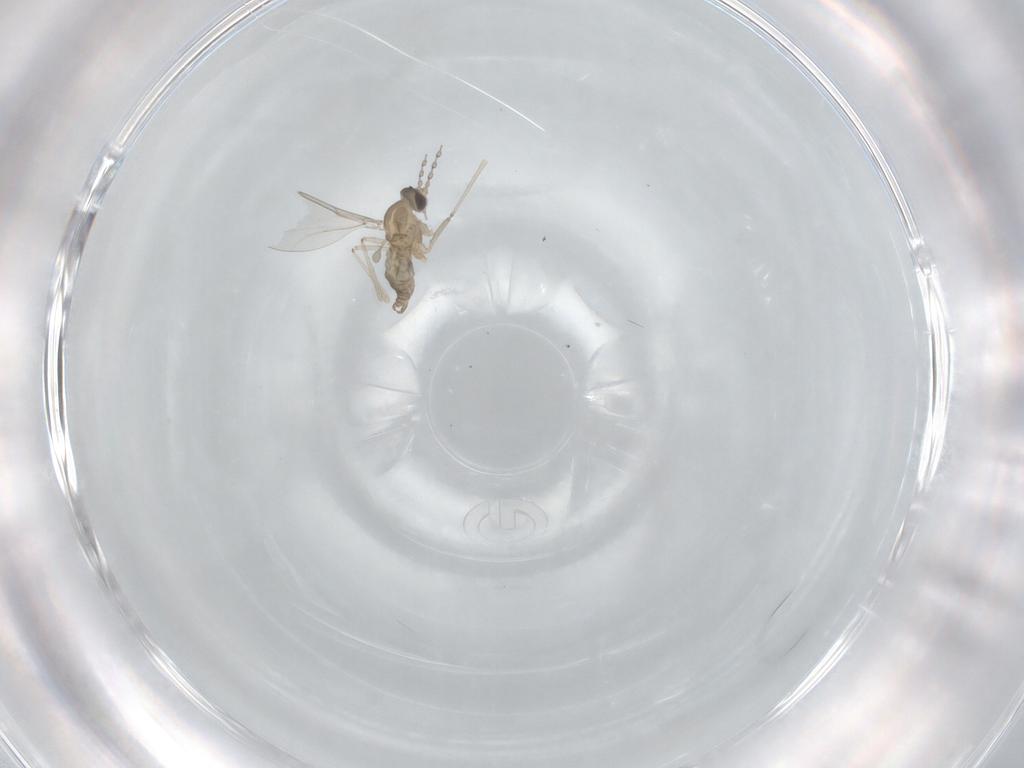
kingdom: Animalia
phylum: Arthropoda
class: Insecta
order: Diptera
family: Cecidomyiidae
